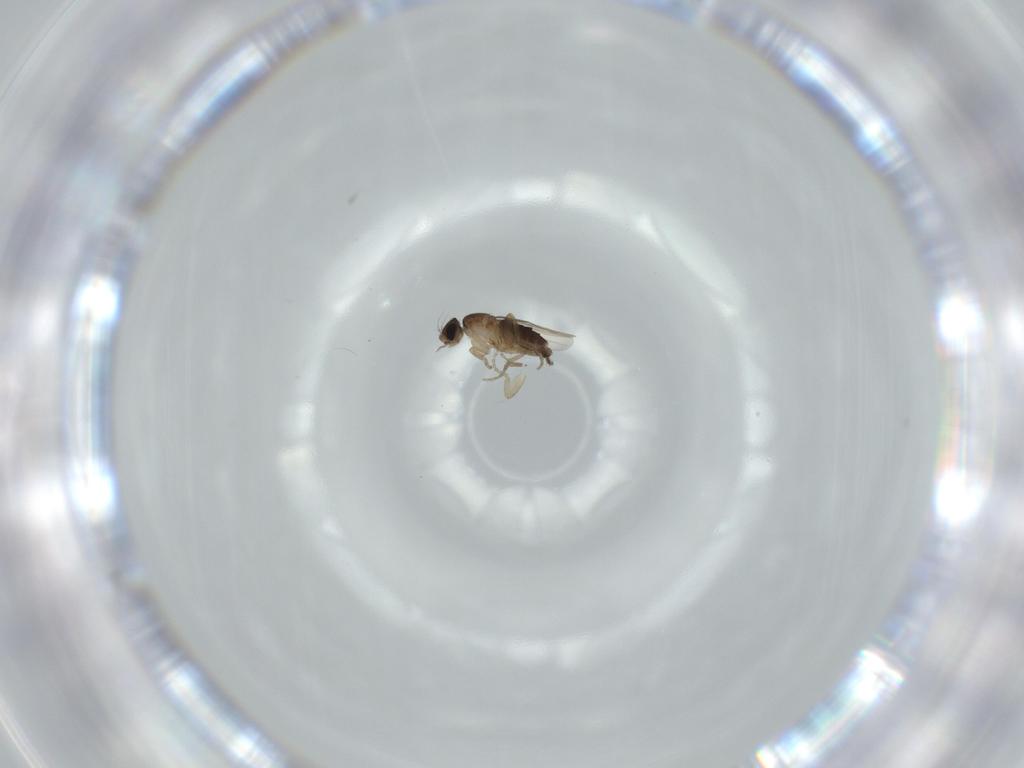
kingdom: Animalia
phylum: Arthropoda
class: Insecta
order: Diptera
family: Phoridae
